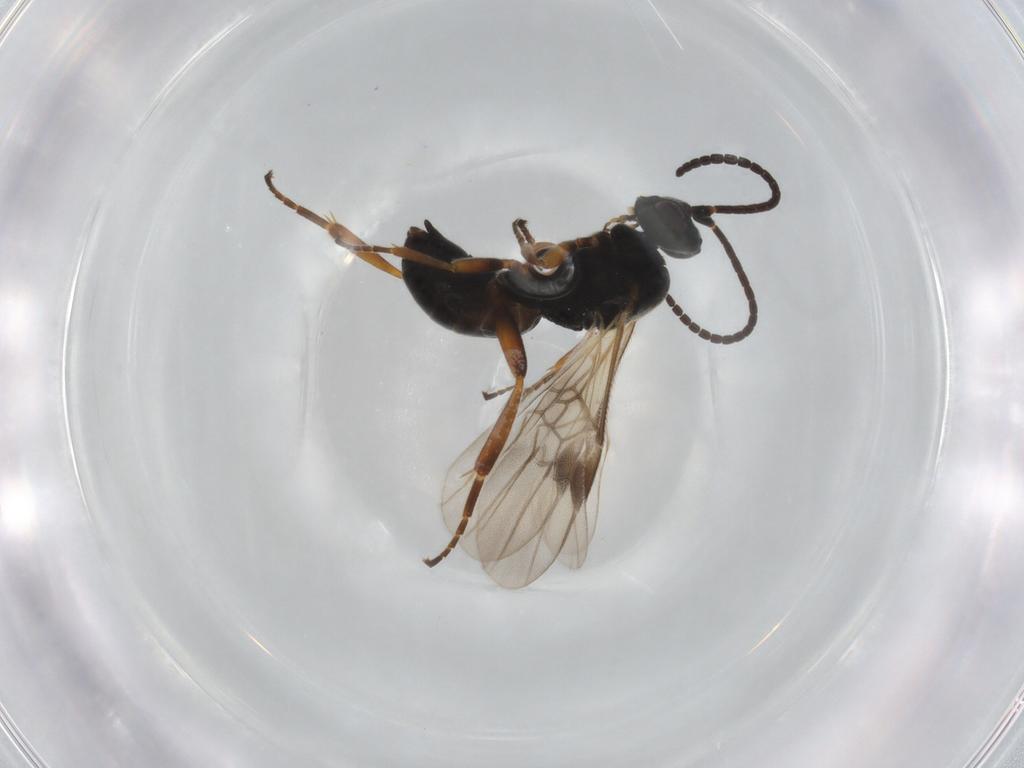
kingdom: Animalia
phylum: Arthropoda
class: Insecta
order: Hymenoptera
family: Braconidae
